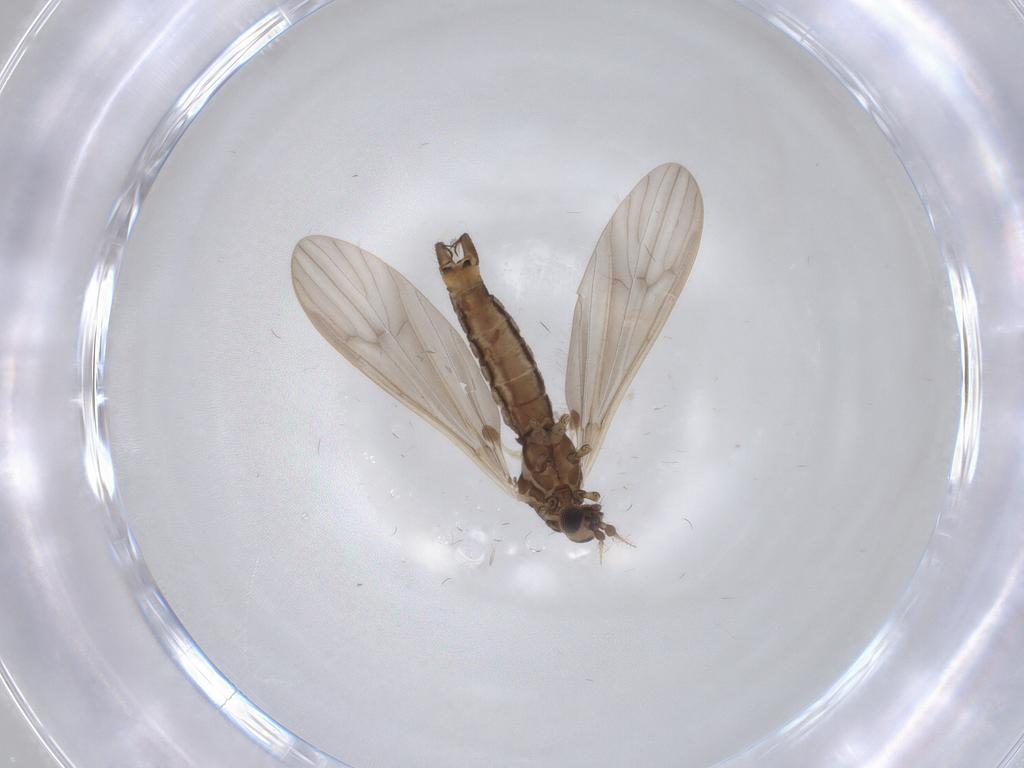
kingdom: Animalia
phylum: Arthropoda
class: Insecta
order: Diptera
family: Limoniidae
